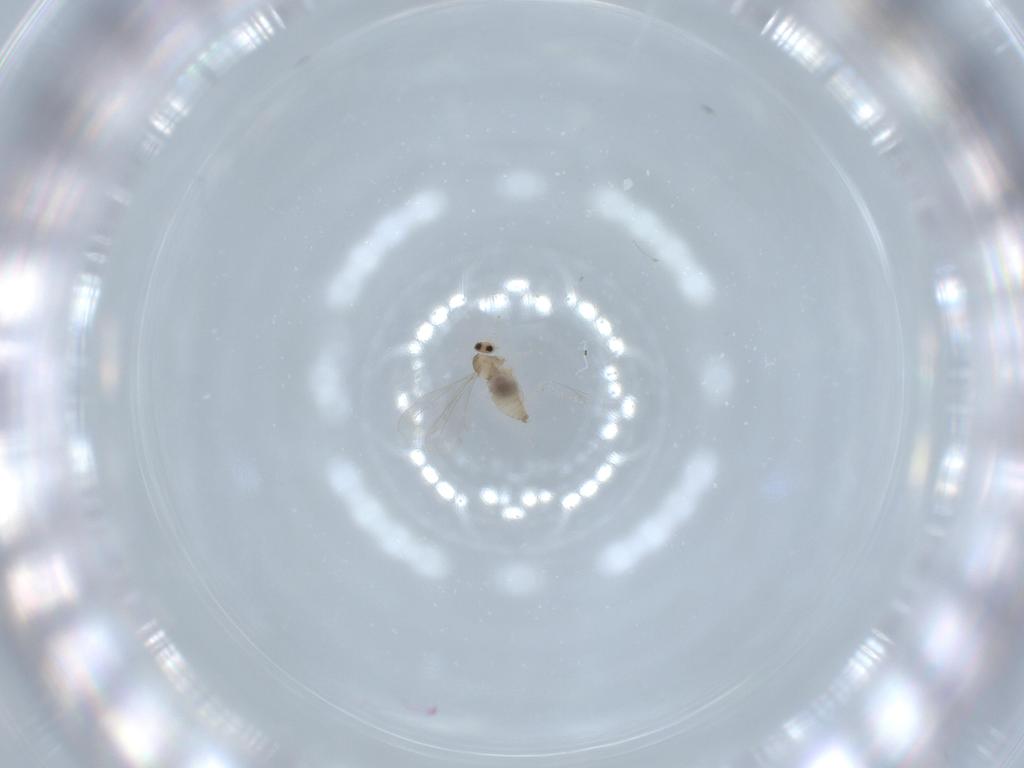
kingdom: Animalia
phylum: Arthropoda
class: Insecta
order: Diptera
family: Cecidomyiidae
